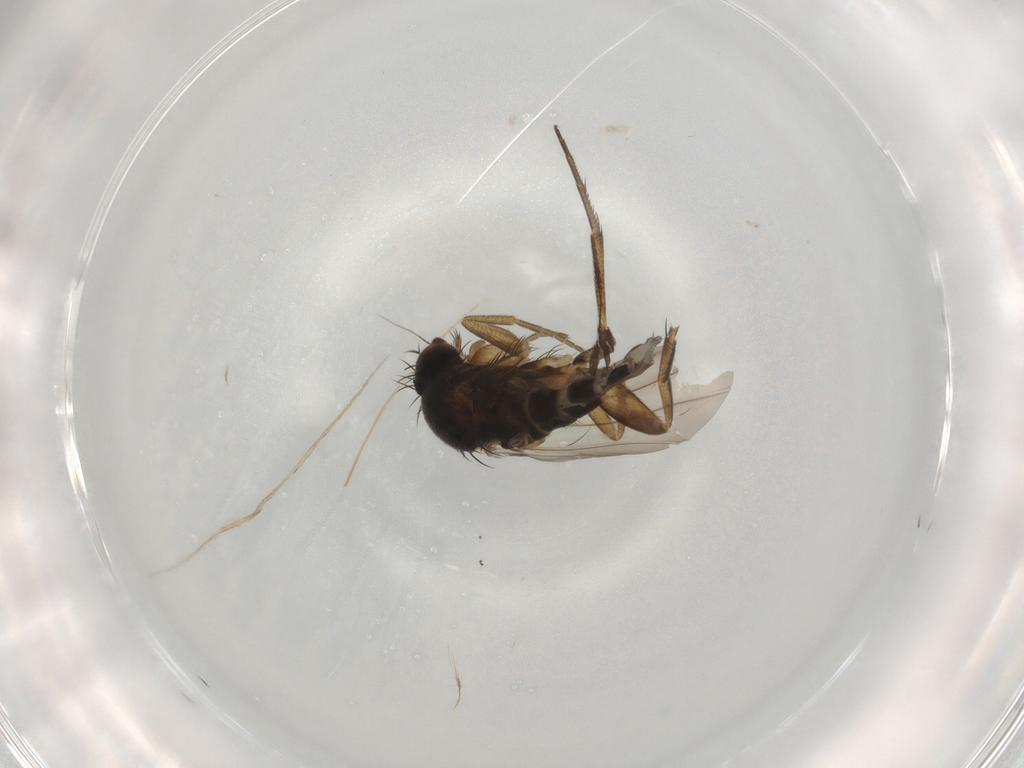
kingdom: Animalia
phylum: Arthropoda
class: Insecta
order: Diptera
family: Phoridae
